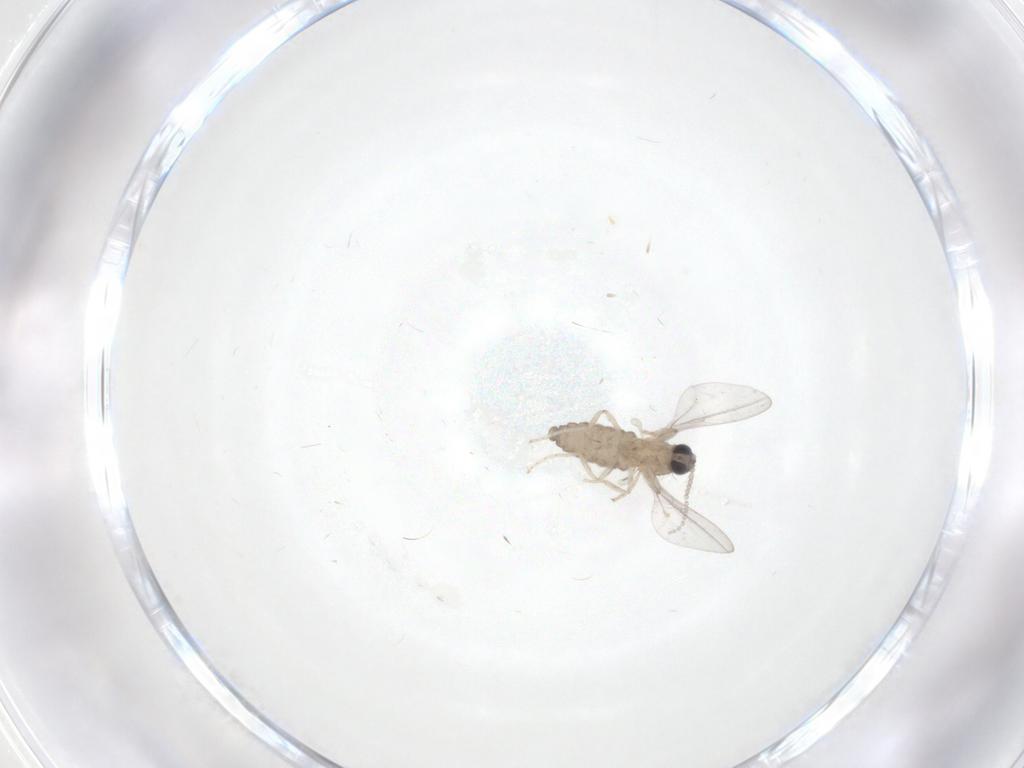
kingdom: Animalia
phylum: Arthropoda
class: Insecta
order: Diptera
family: Cecidomyiidae
